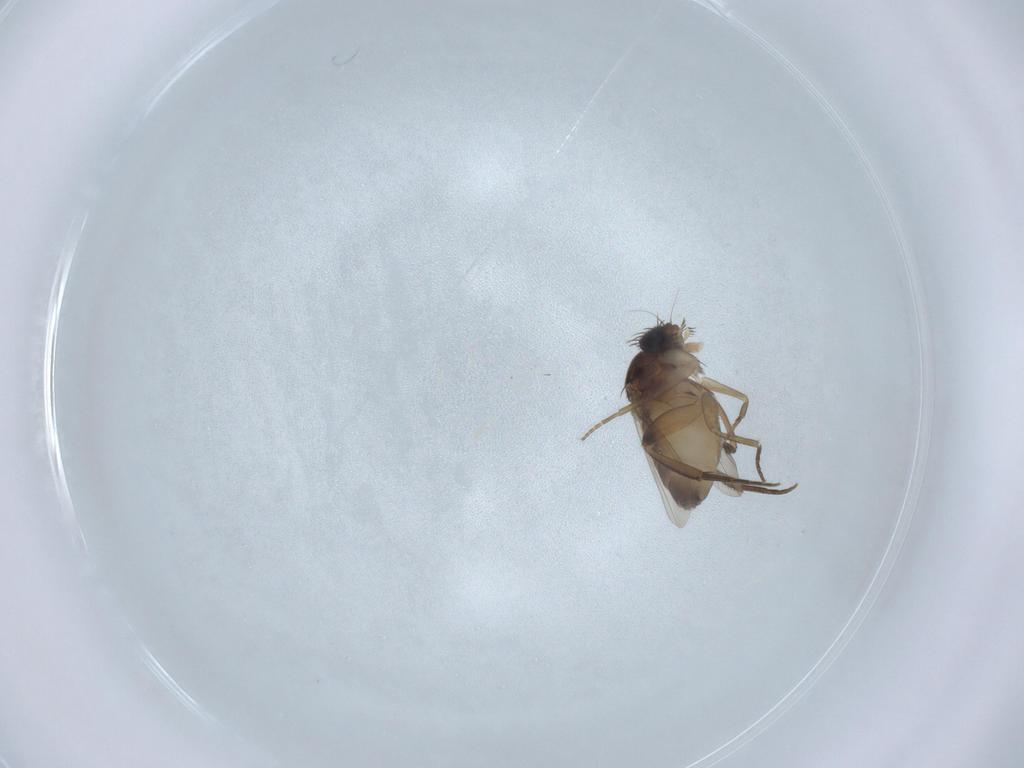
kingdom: Animalia
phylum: Arthropoda
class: Insecta
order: Diptera
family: Phoridae
